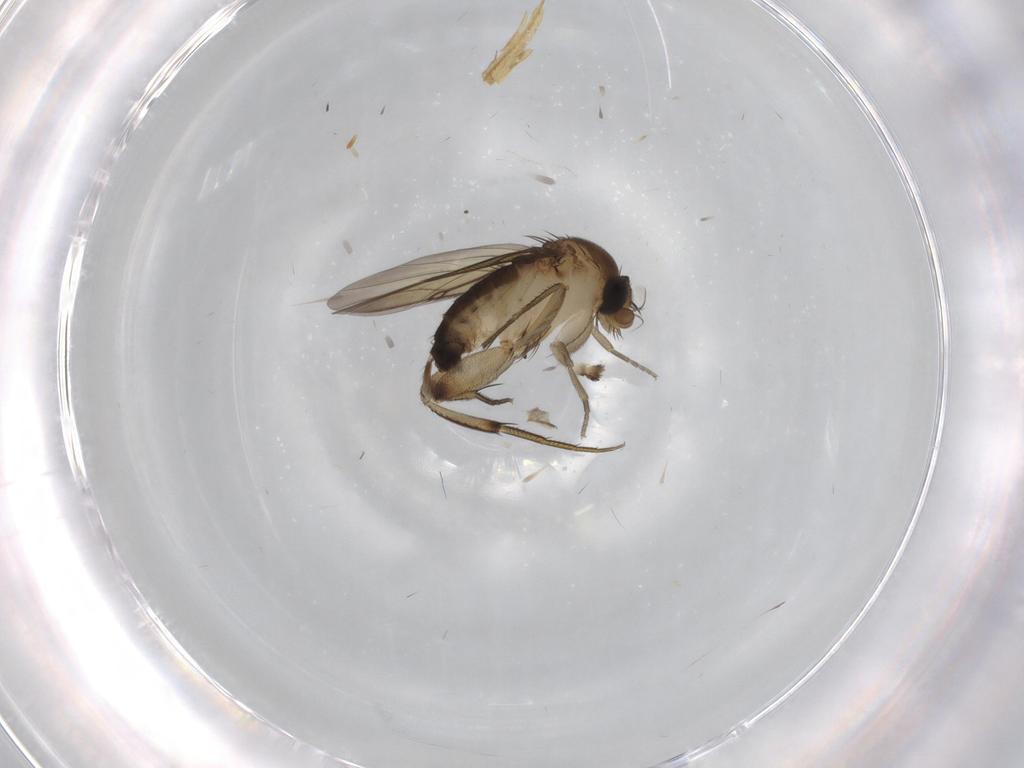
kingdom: Animalia
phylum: Arthropoda
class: Insecta
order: Diptera
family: Phoridae
